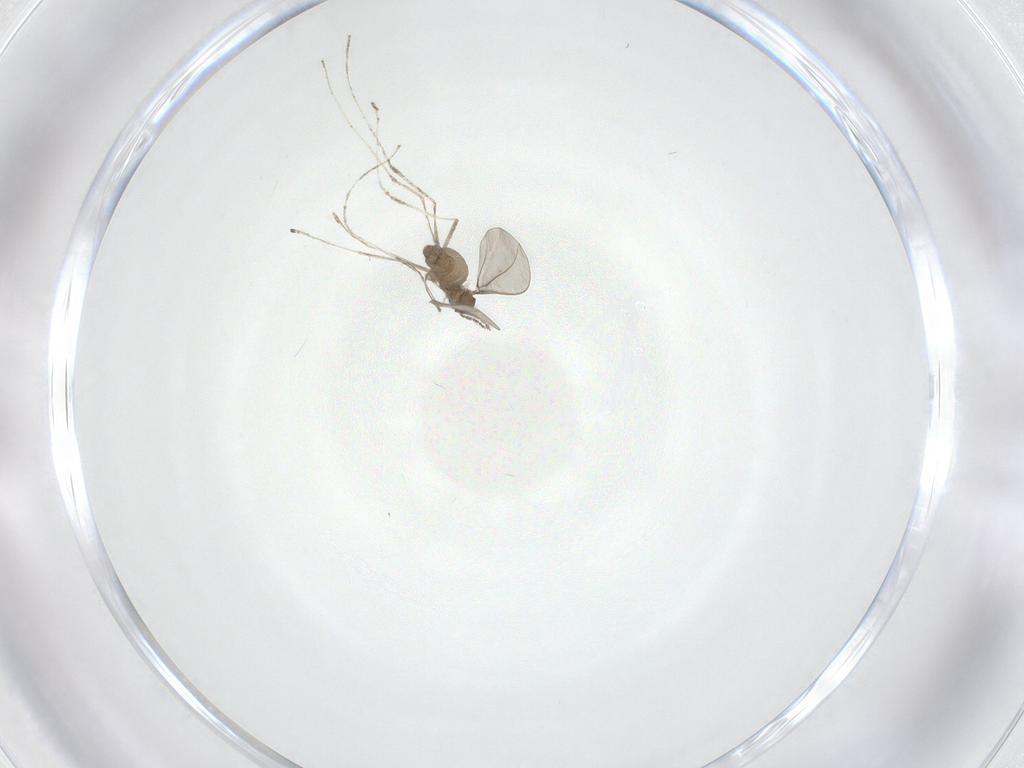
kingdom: Animalia
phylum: Arthropoda
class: Insecta
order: Diptera
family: Cecidomyiidae
